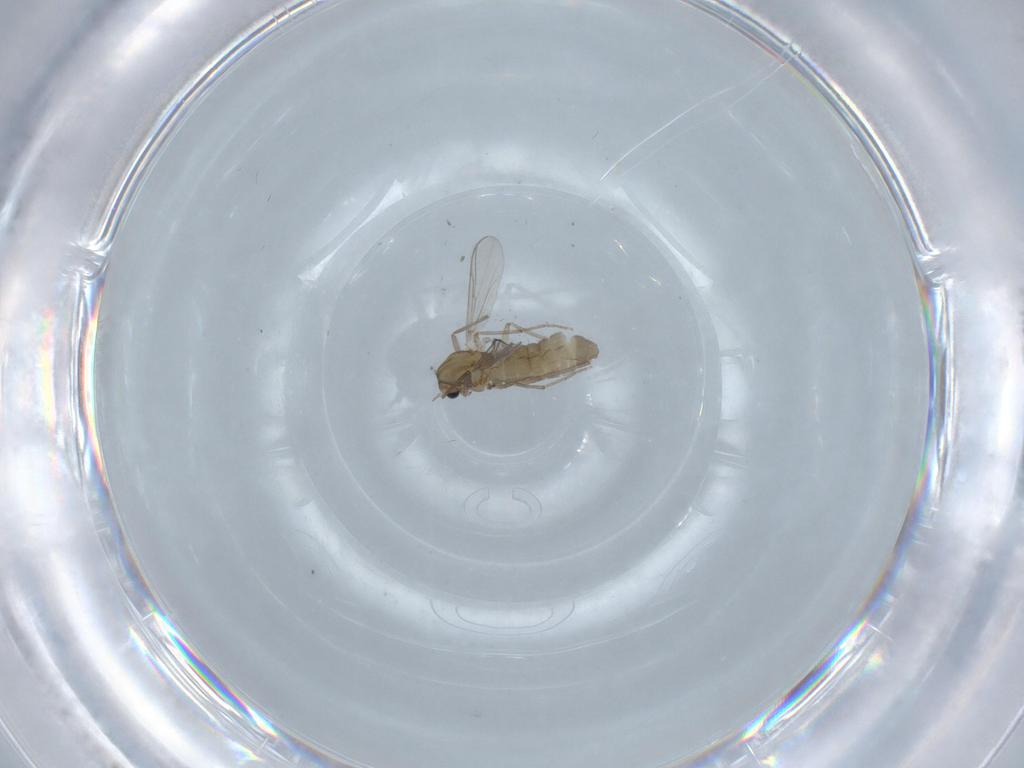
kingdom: Animalia
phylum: Arthropoda
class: Insecta
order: Diptera
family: Chironomidae
